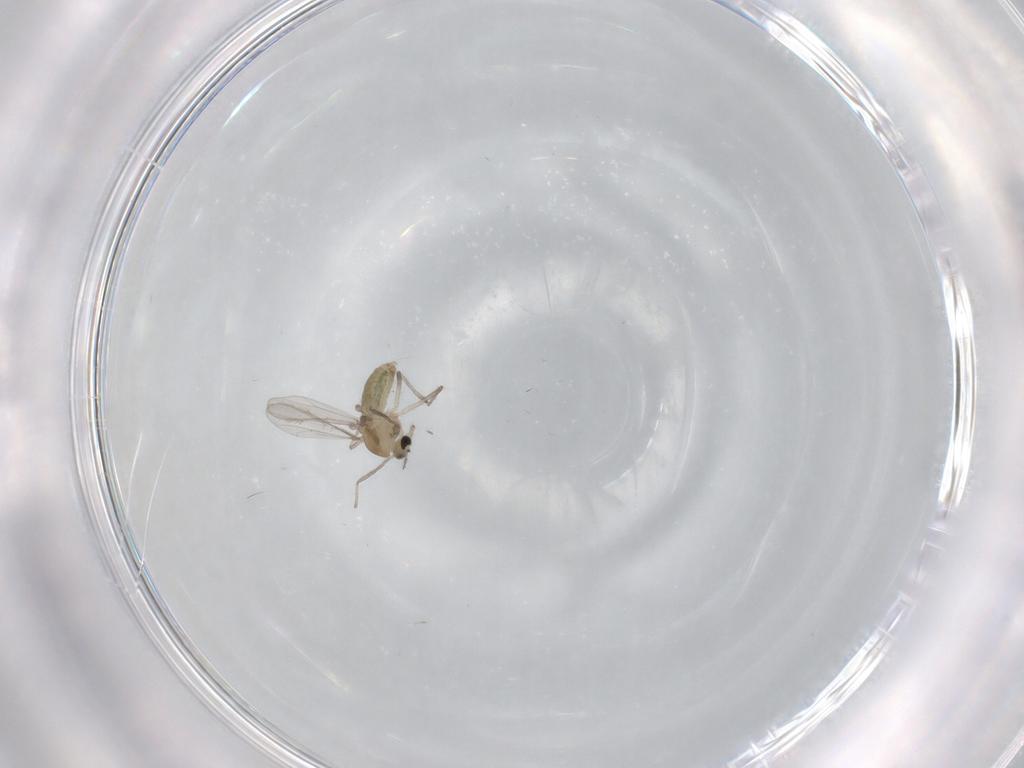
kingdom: Animalia
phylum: Arthropoda
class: Insecta
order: Diptera
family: Chironomidae
